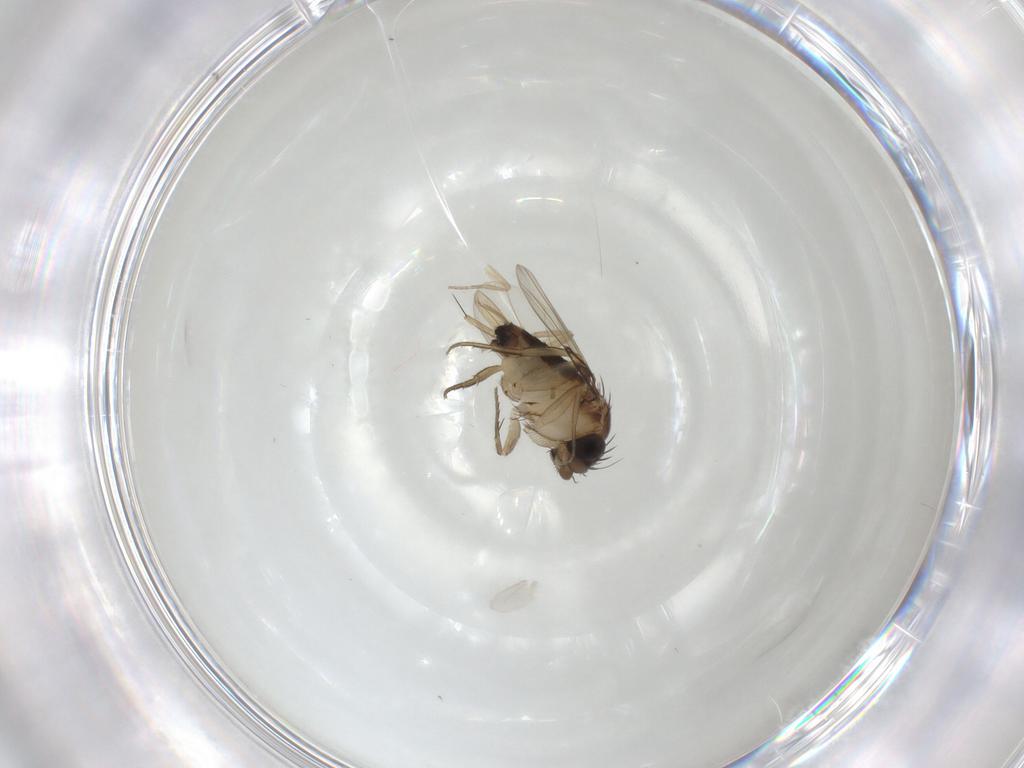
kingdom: Animalia
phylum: Arthropoda
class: Insecta
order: Diptera
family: Phoridae
